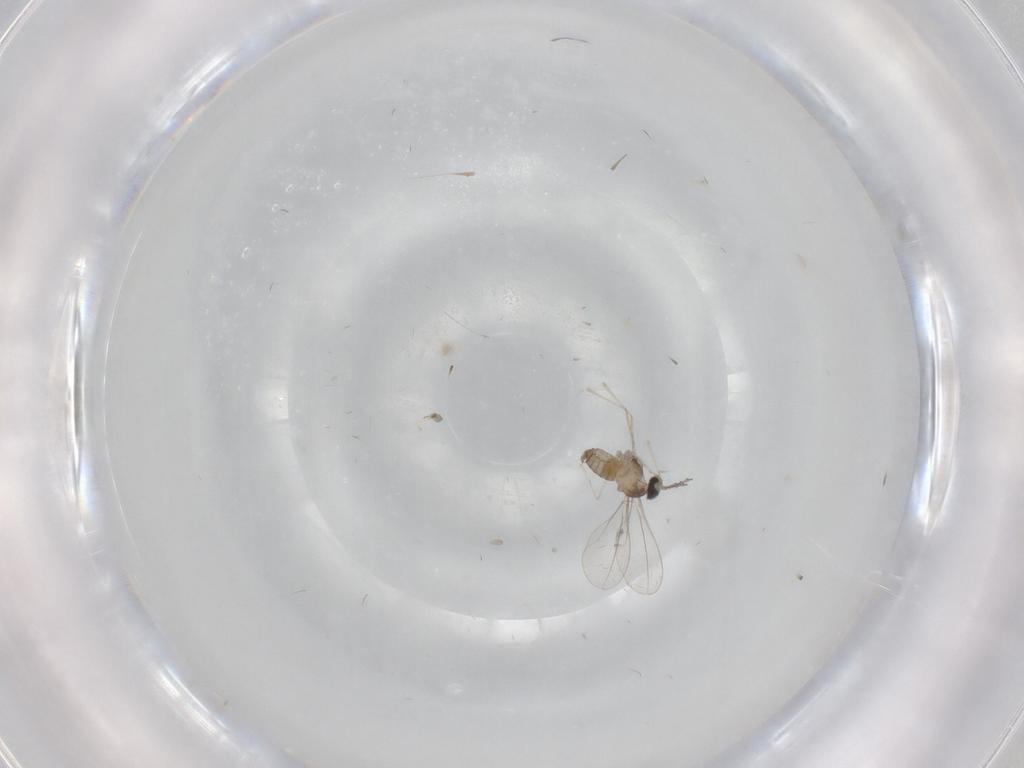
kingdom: Animalia
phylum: Arthropoda
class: Insecta
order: Diptera
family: Cecidomyiidae
